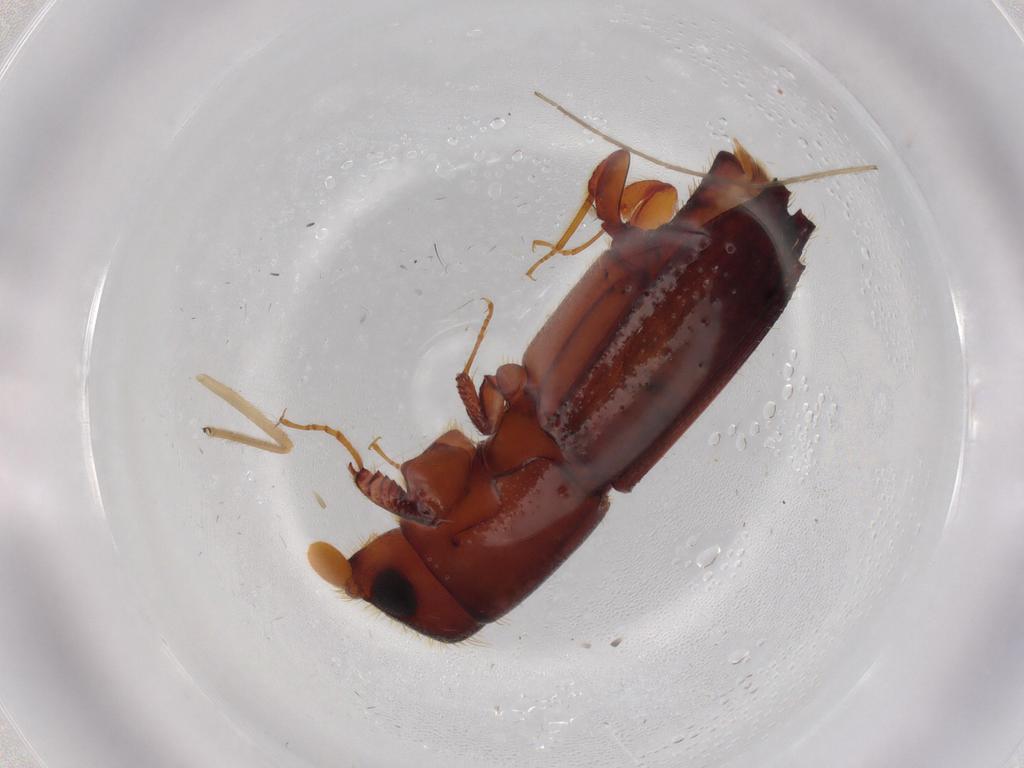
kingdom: Animalia
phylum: Arthropoda
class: Insecta
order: Coleoptera
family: Curculionidae
